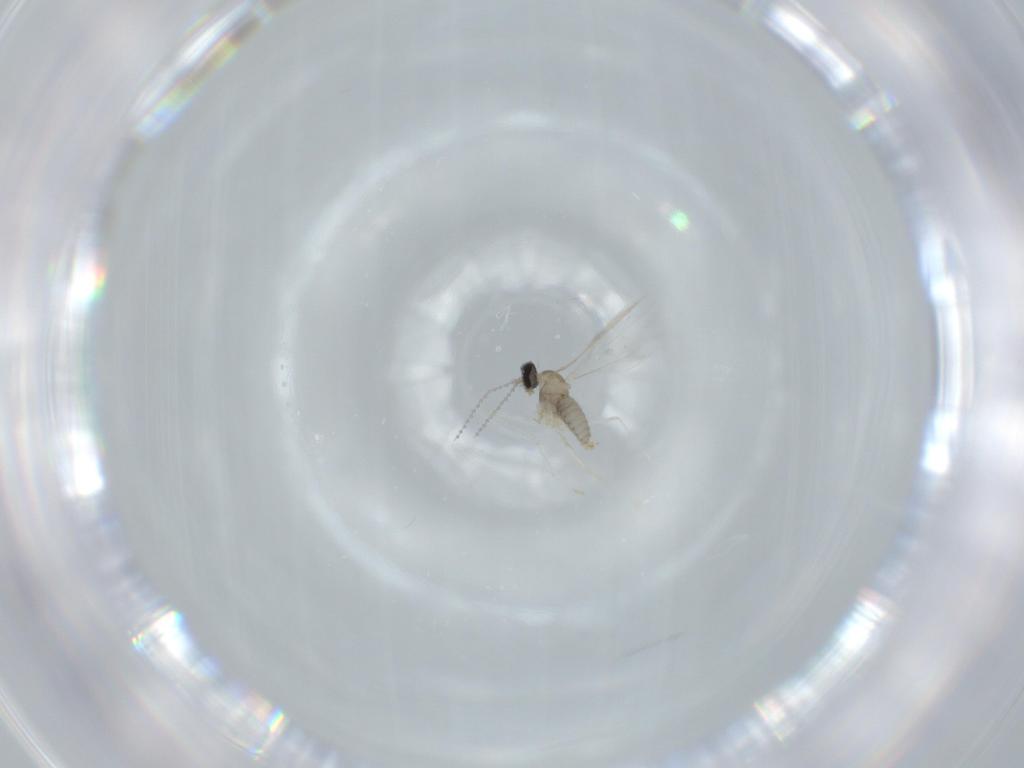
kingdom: Animalia
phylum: Arthropoda
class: Insecta
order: Diptera
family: Cecidomyiidae
